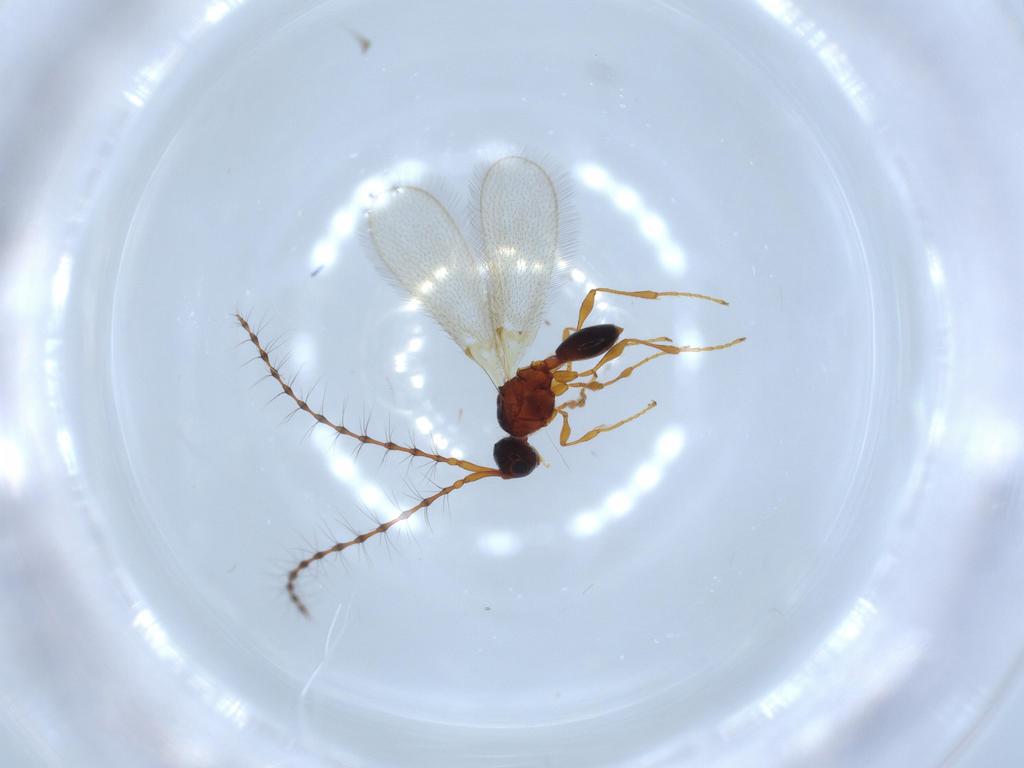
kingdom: Animalia
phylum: Arthropoda
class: Insecta
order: Hymenoptera
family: Diapriidae
